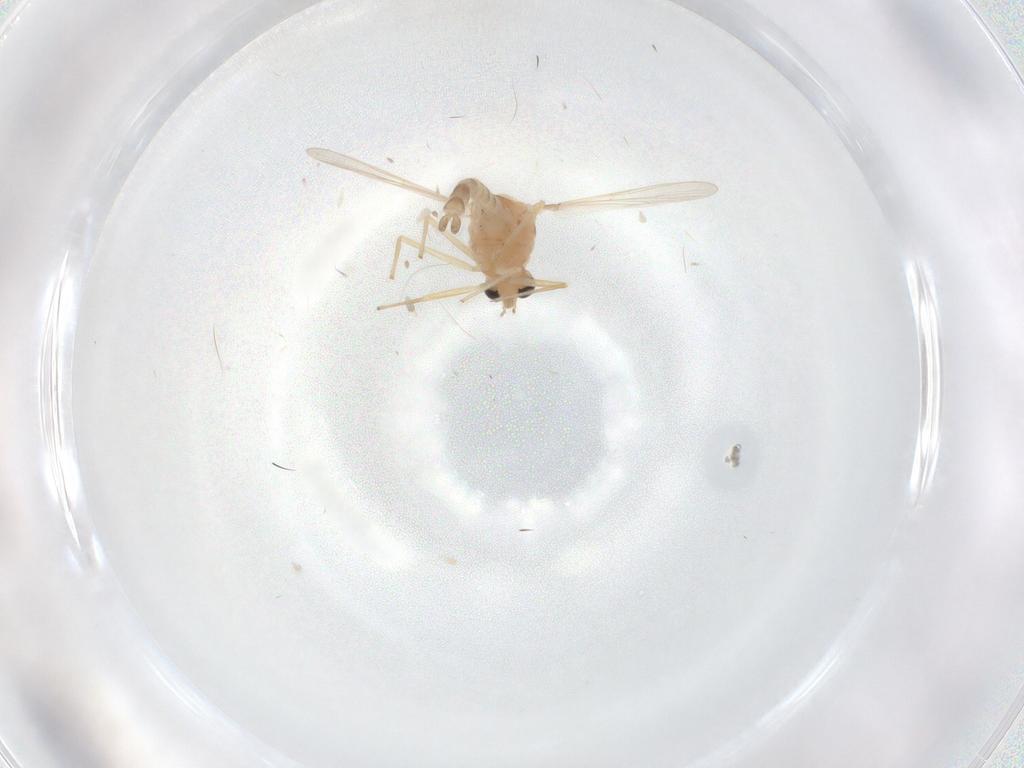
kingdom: Animalia
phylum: Arthropoda
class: Insecta
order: Diptera
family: Chironomidae
